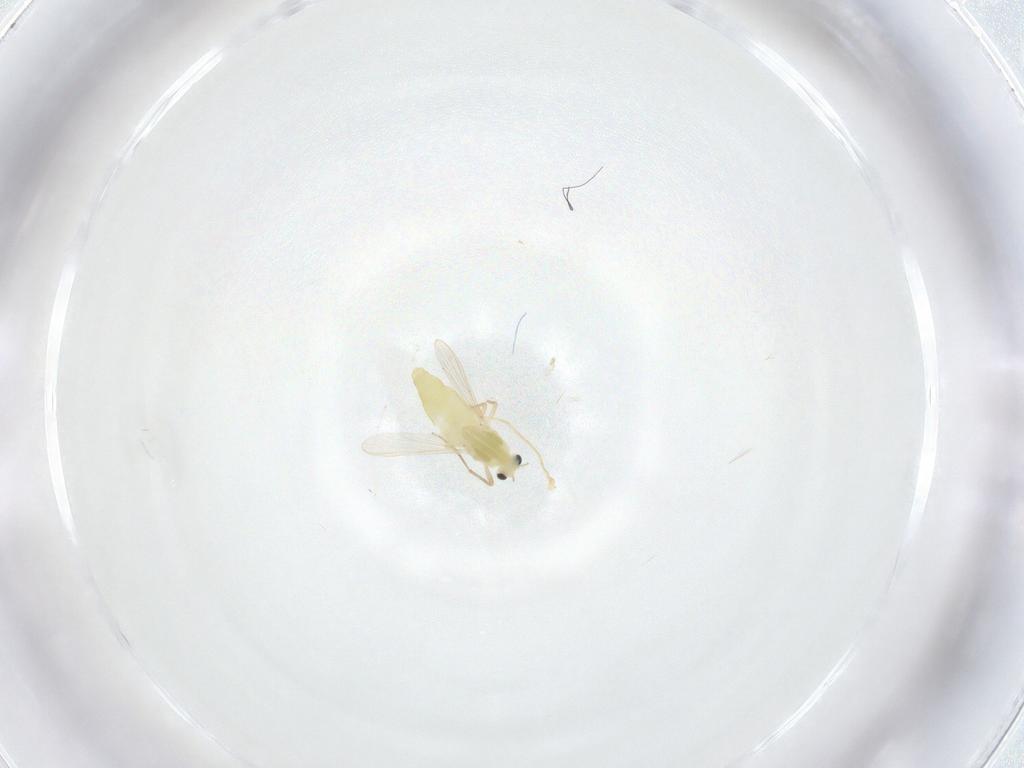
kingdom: Animalia
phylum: Arthropoda
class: Insecta
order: Diptera
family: Chironomidae
